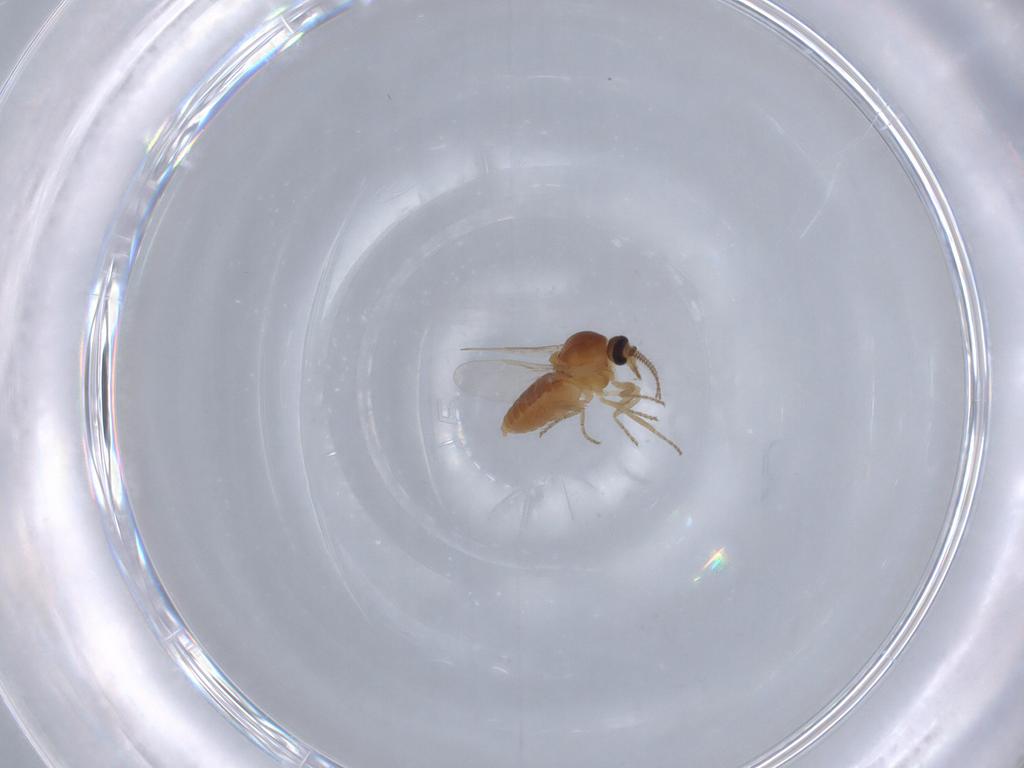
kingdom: Animalia
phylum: Arthropoda
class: Insecta
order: Diptera
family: Ceratopogonidae
